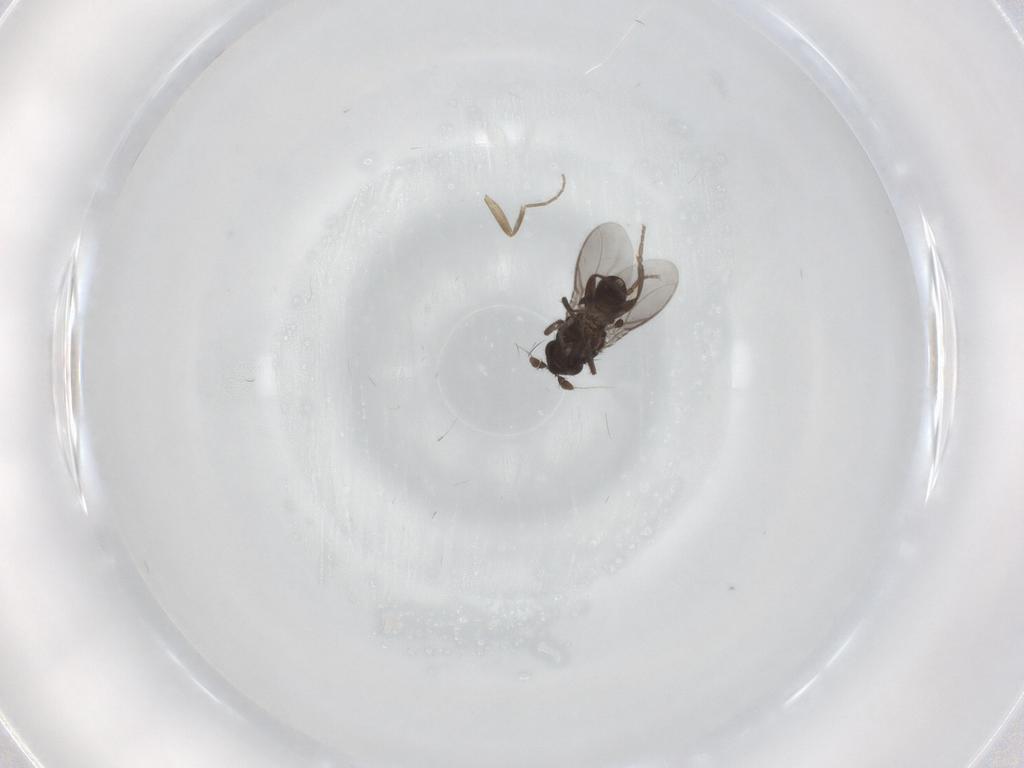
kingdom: Animalia
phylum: Arthropoda
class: Insecta
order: Diptera
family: Sphaeroceridae
